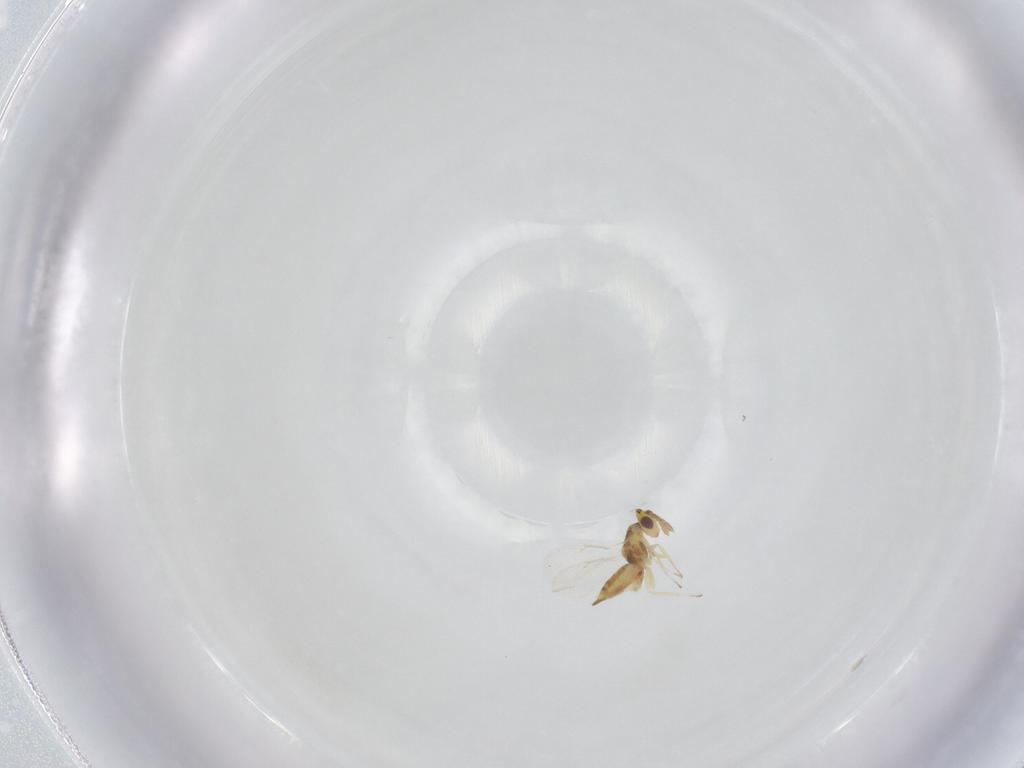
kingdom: Animalia
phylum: Arthropoda
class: Insecta
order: Hymenoptera
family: Eulophidae
